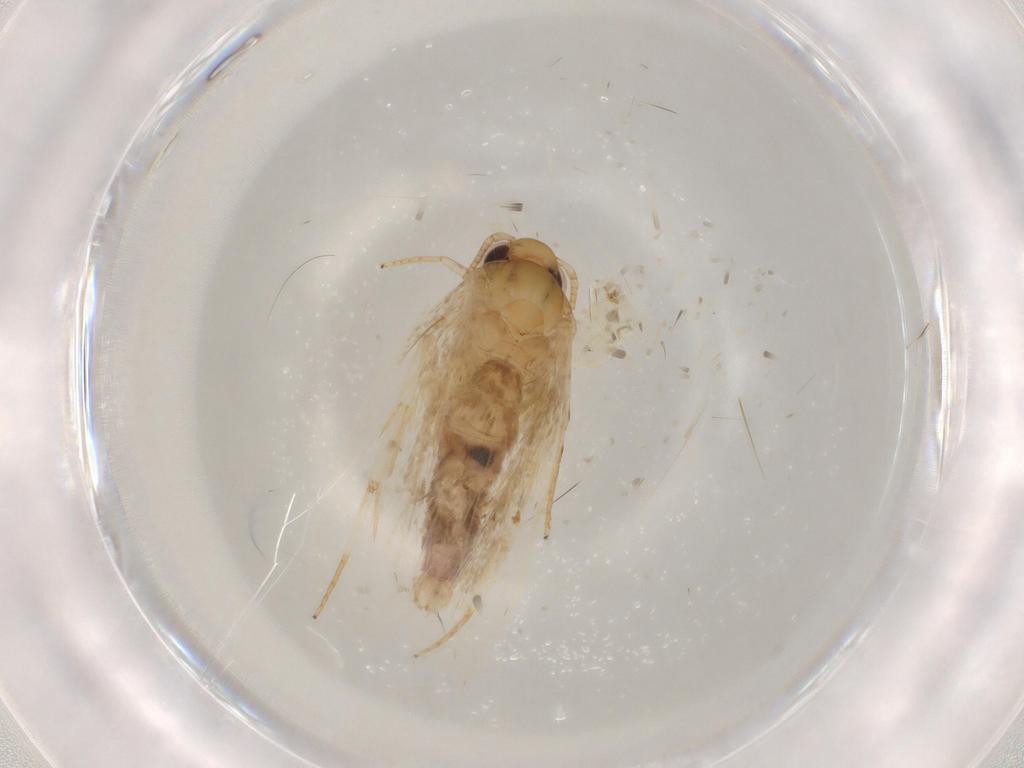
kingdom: Animalia
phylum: Arthropoda
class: Insecta
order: Lepidoptera
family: Depressariidae
